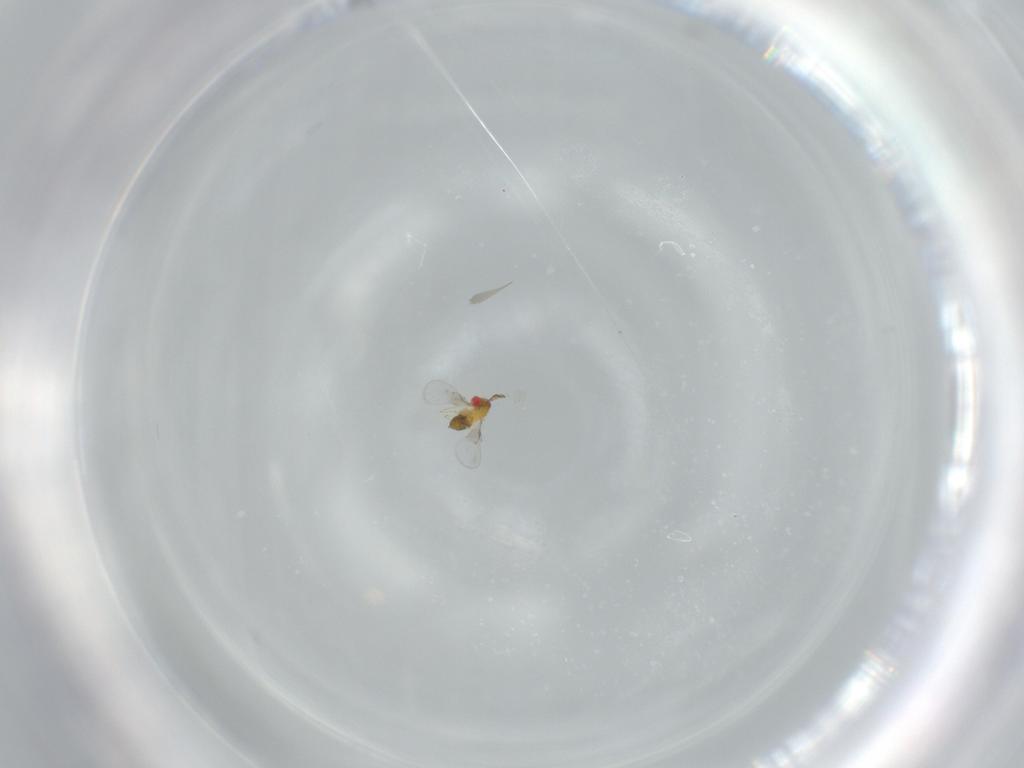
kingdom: Animalia
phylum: Arthropoda
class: Insecta
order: Hymenoptera
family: Trichogrammatidae
